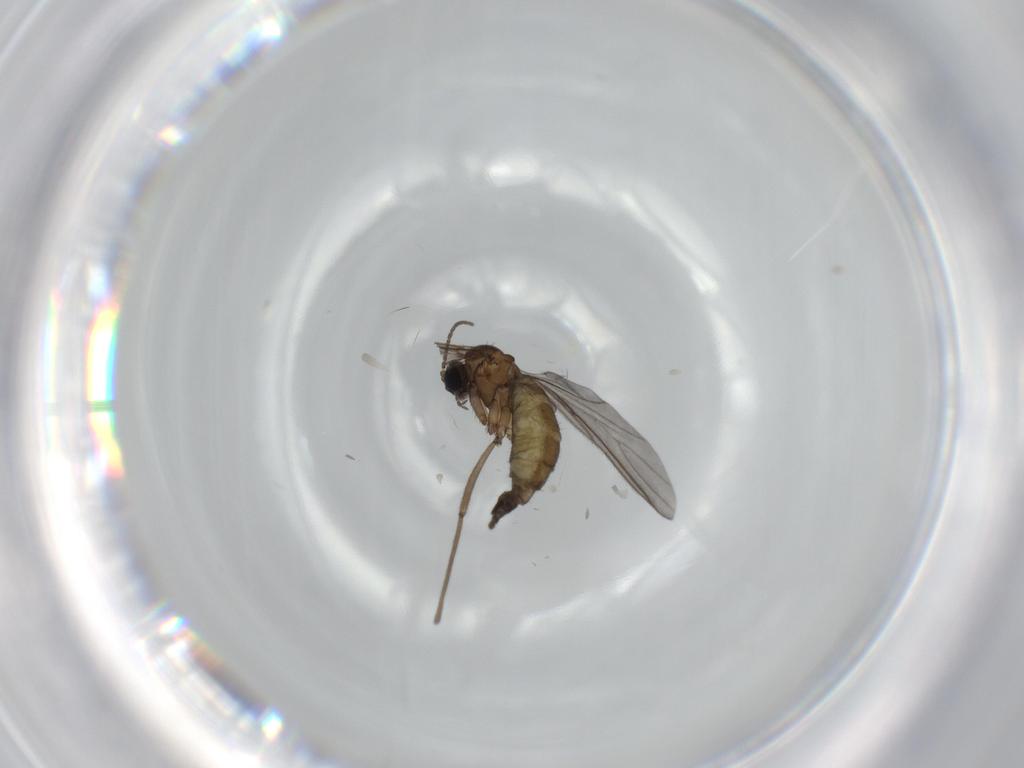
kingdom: Animalia
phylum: Arthropoda
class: Insecta
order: Diptera
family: Sciaridae
